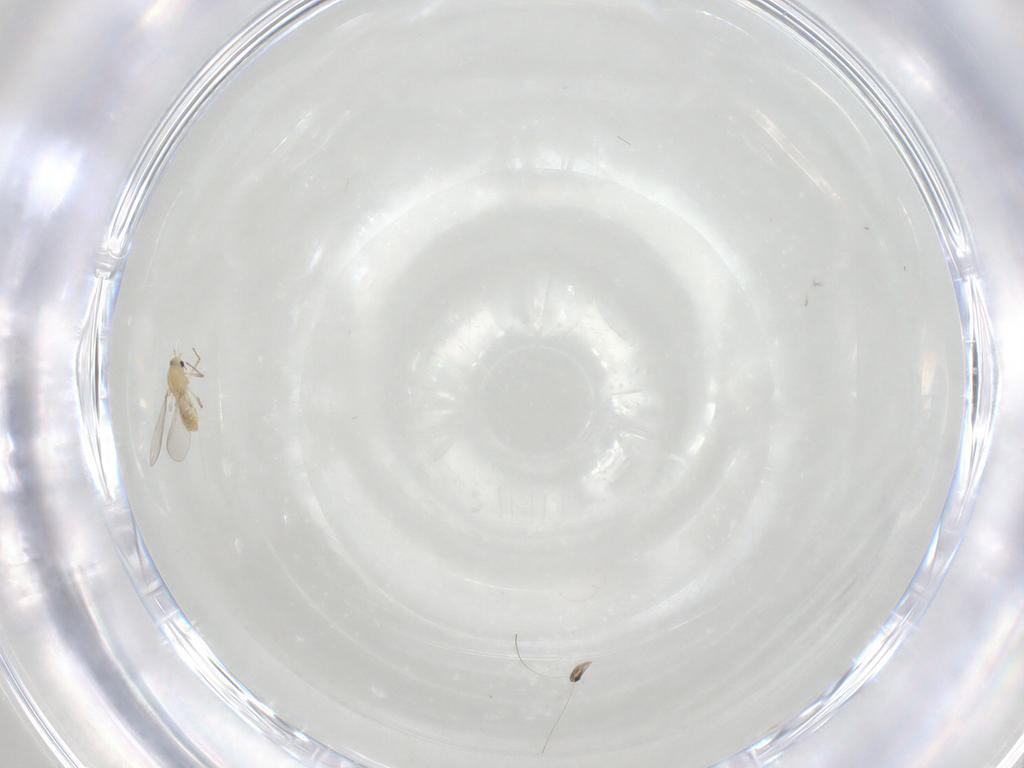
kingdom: Animalia
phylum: Arthropoda
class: Insecta
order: Diptera
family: Chironomidae
